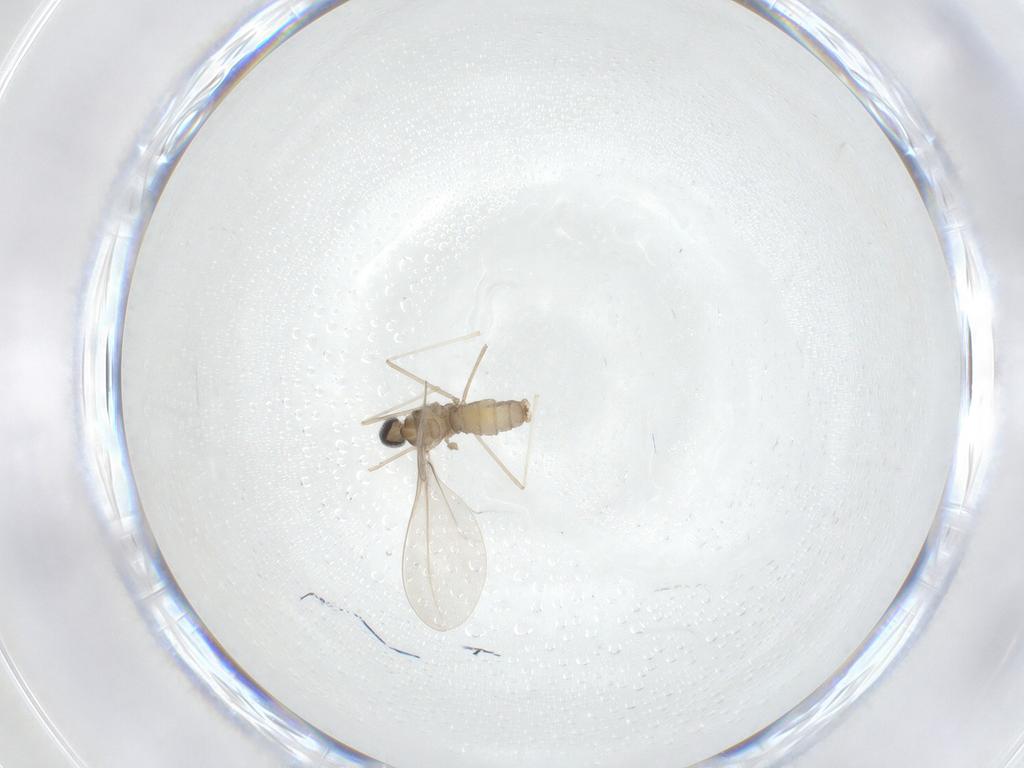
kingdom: Animalia
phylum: Arthropoda
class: Insecta
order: Diptera
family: Cecidomyiidae
